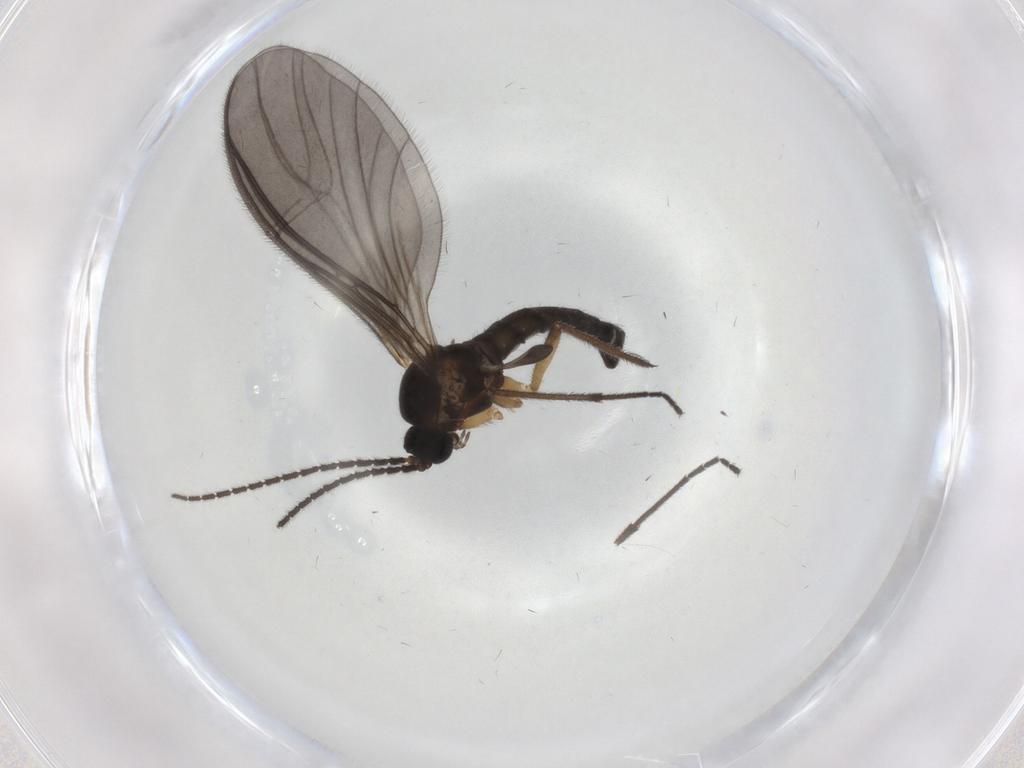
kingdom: Animalia
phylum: Arthropoda
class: Insecta
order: Diptera
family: Sciaridae
